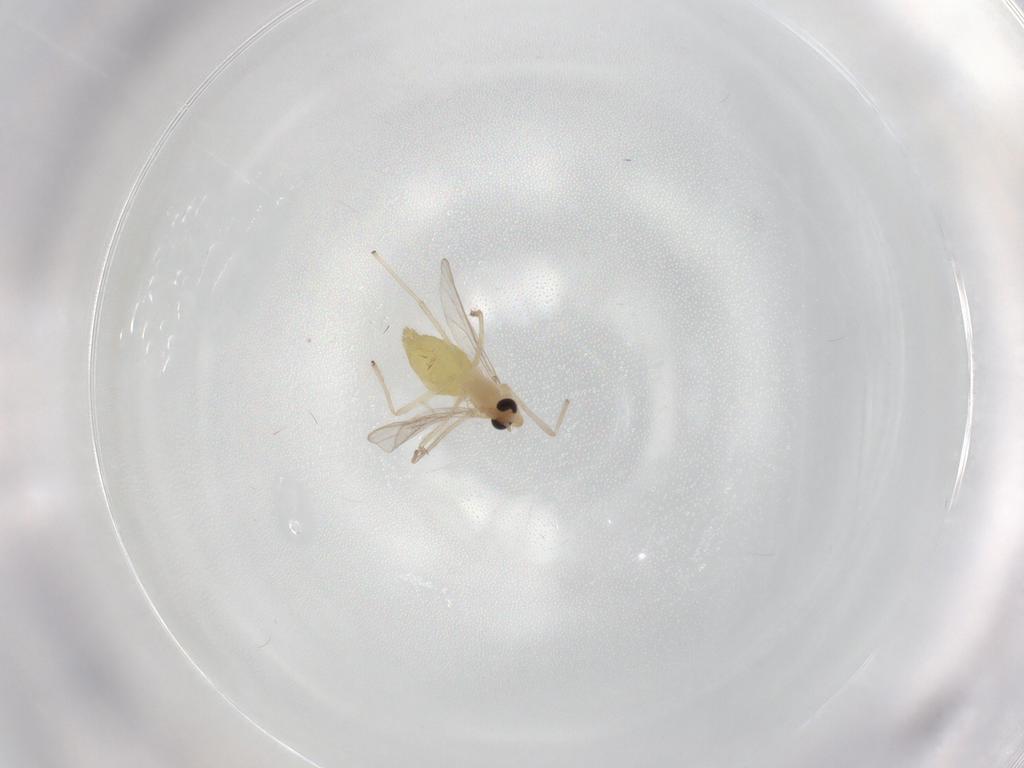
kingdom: Animalia
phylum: Arthropoda
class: Insecta
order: Diptera
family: Chironomidae
